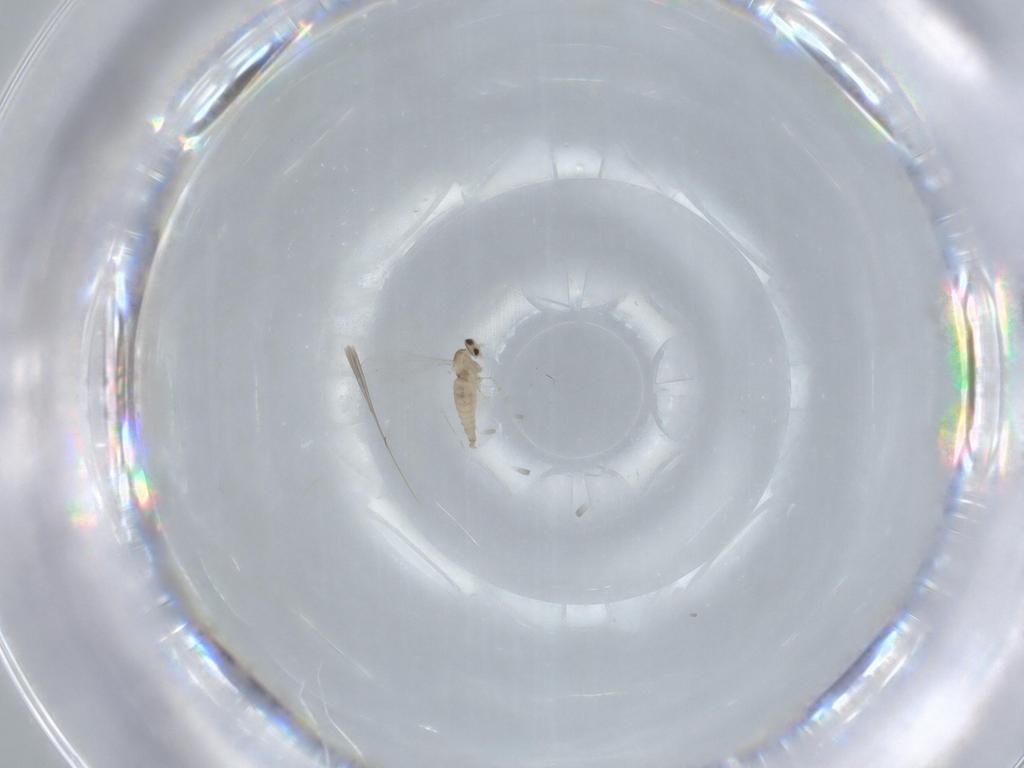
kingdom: Animalia
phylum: Arthropoda
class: Insecta
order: Diptera
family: Cecidomyiidae
